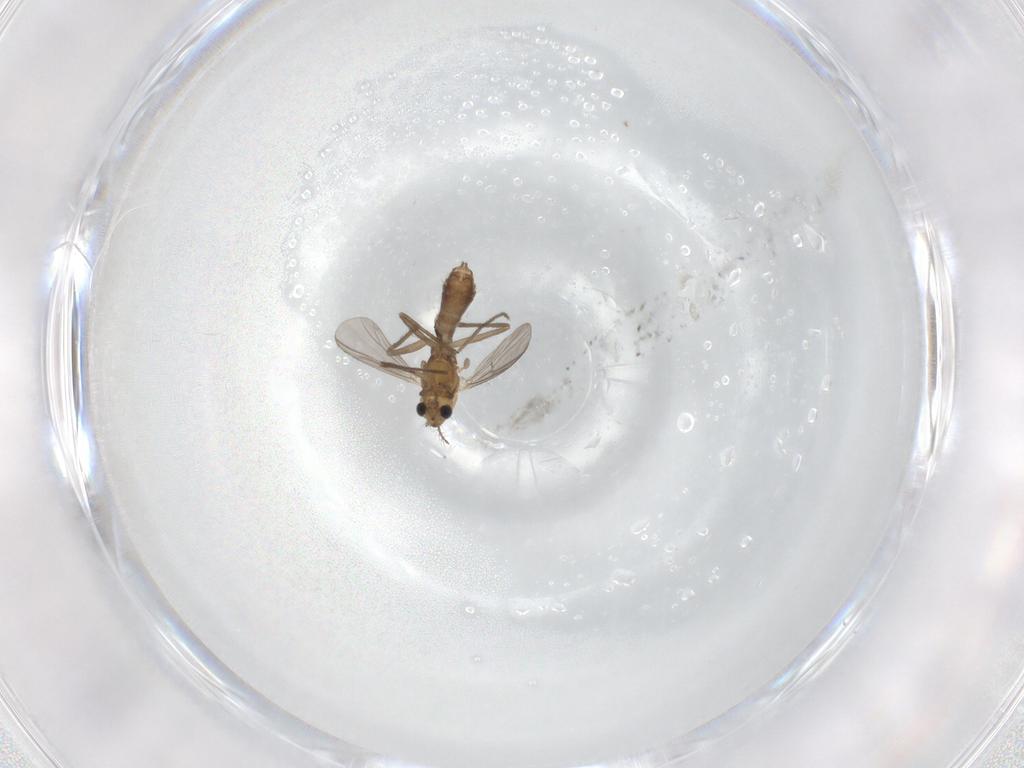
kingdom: Animalia
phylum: Arthropoda
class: Insecta
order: Diptera
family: Chironomidae
